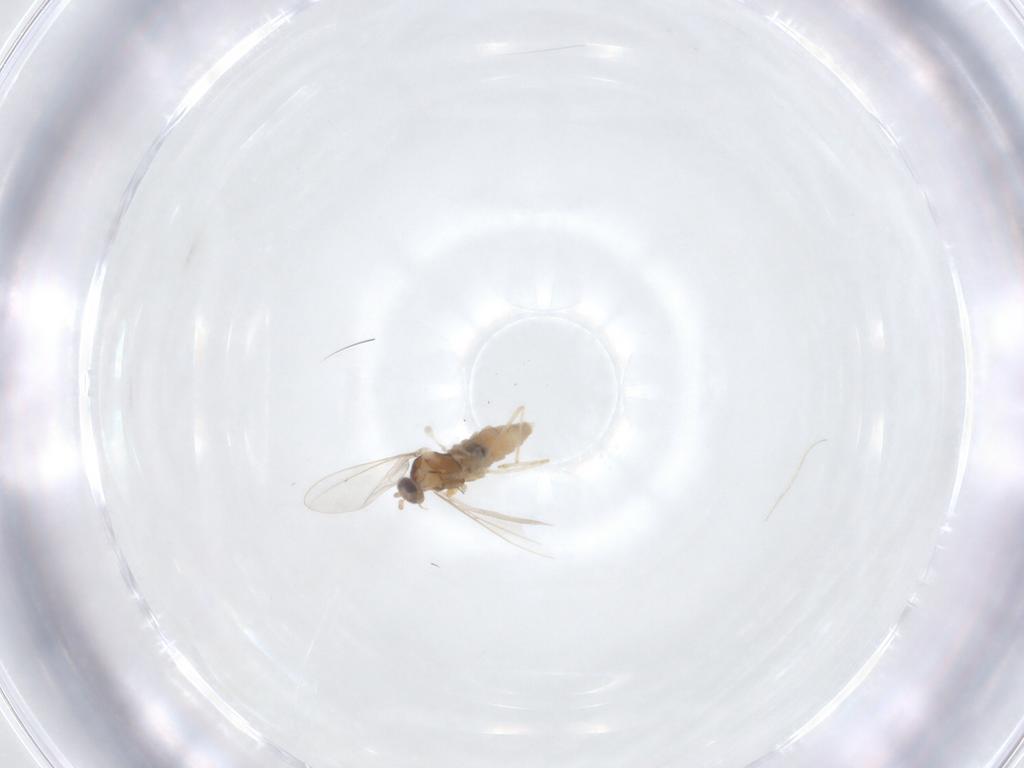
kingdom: Animalia
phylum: Arthropoda
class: Insecta
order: Diptera
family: Cecidomyiidae
